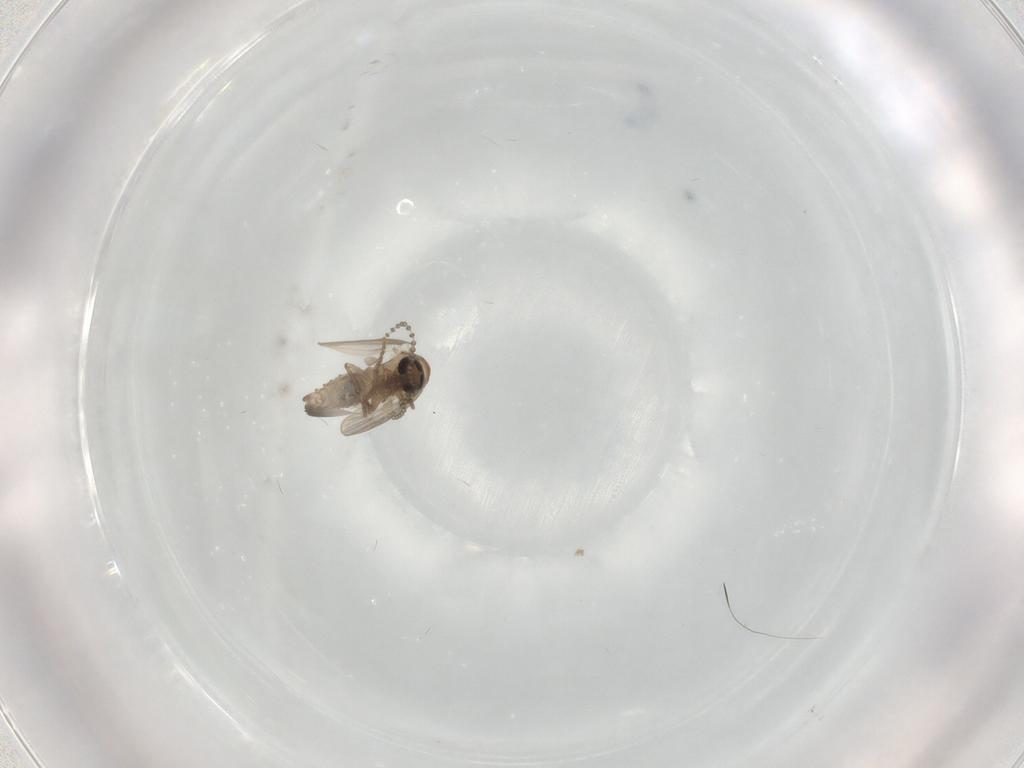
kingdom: Animalia
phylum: Arthropoda
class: Insecta
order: Diptera
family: Psychodidae
